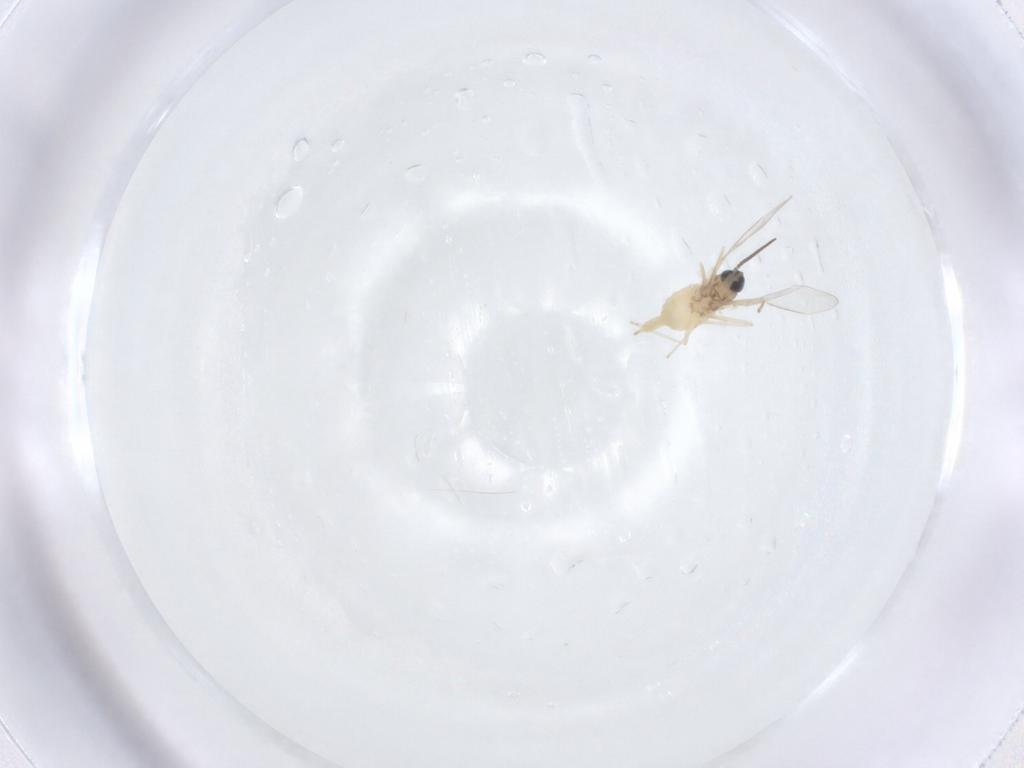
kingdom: Animalia
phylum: Arthropoda
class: Insecta
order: Diptera
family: Cecidomyiidae
